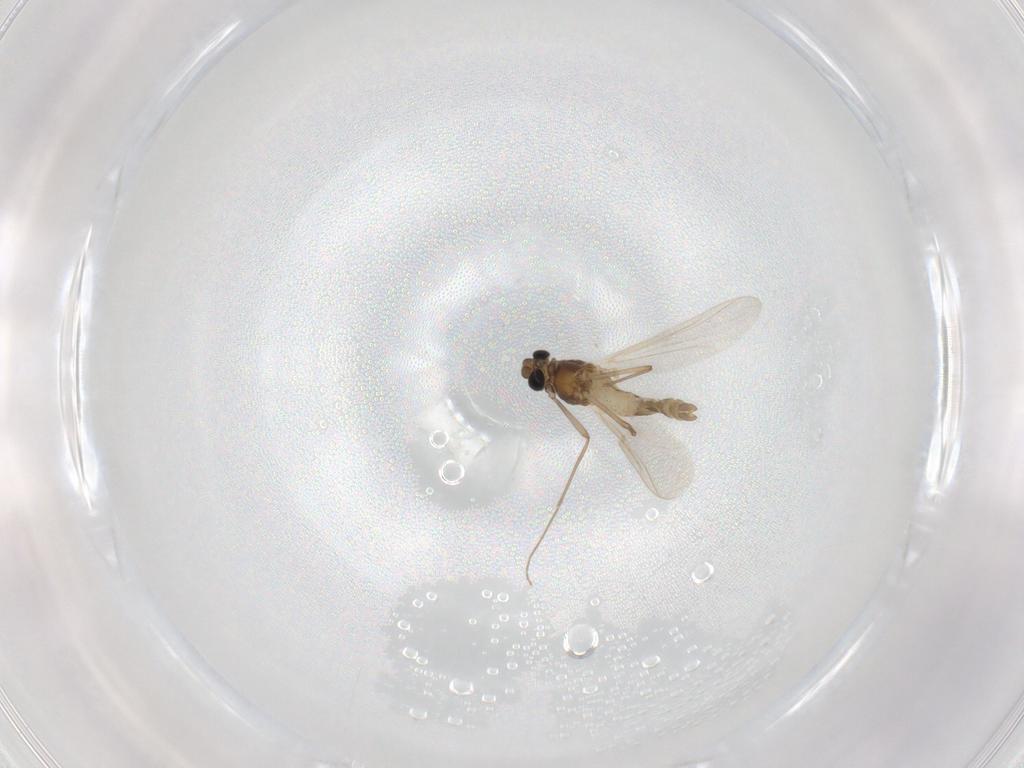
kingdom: Animalia
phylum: Arthropoda
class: Insecta
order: Diptera
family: Chironomidae
